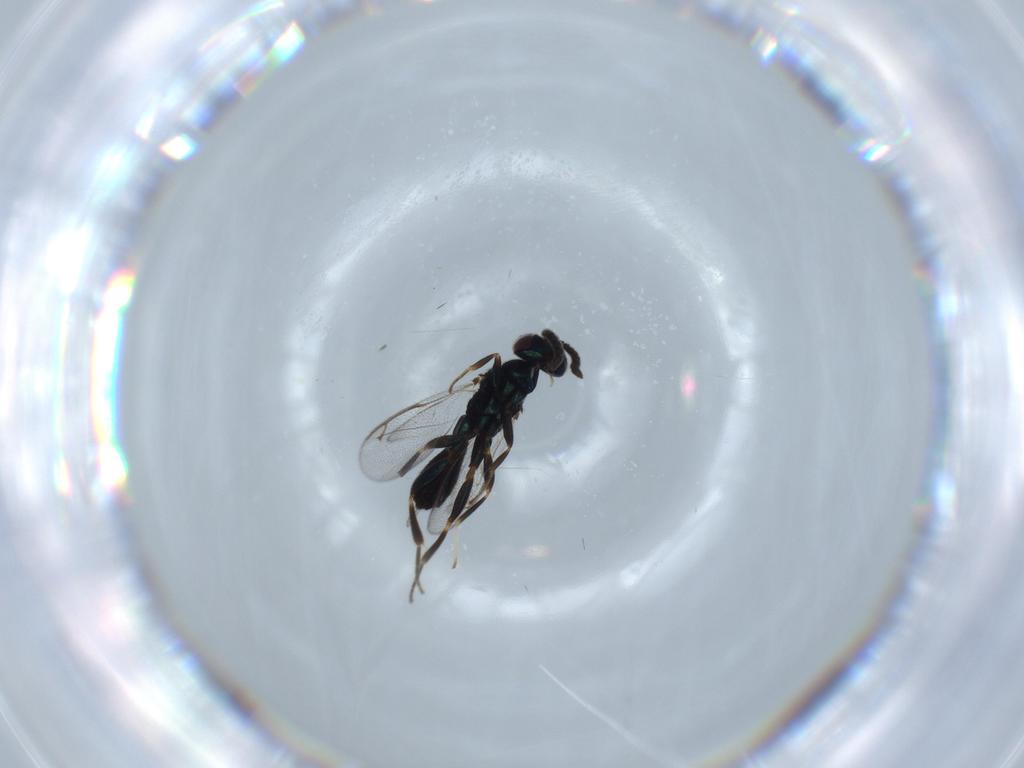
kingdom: Animalia
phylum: Arthropoda
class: Insecta
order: Hymenoptera
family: Cleonyminae
